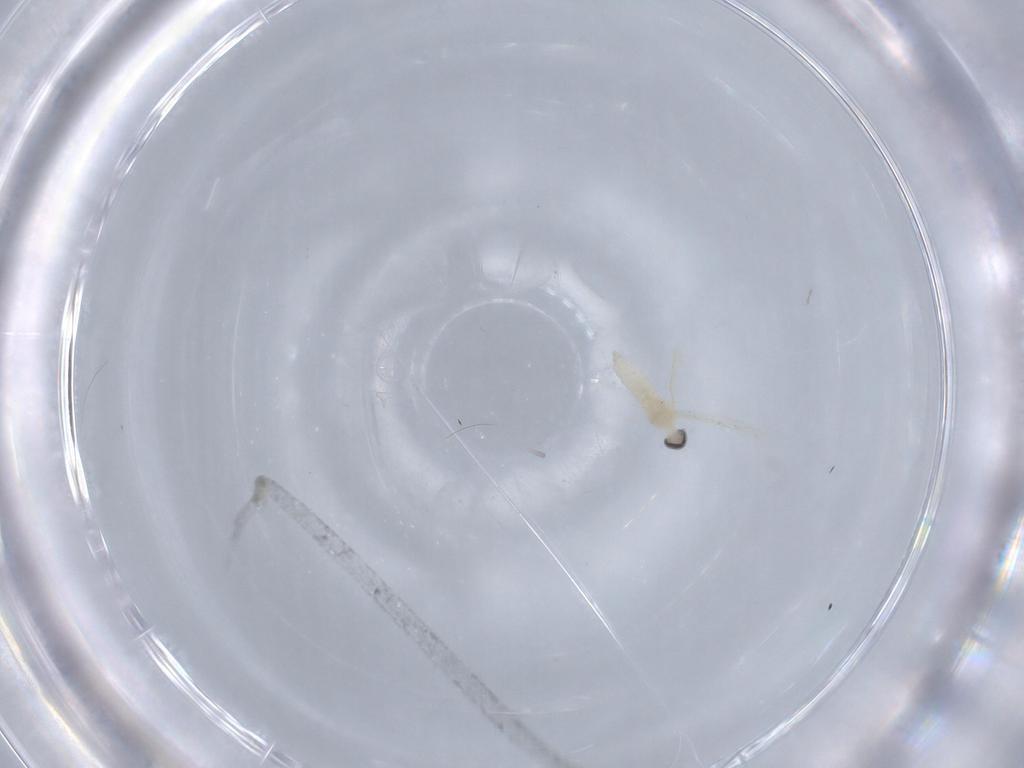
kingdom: Animalia
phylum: Arthropoda
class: Insecta
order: Diptera
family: Cecidomyiidae
